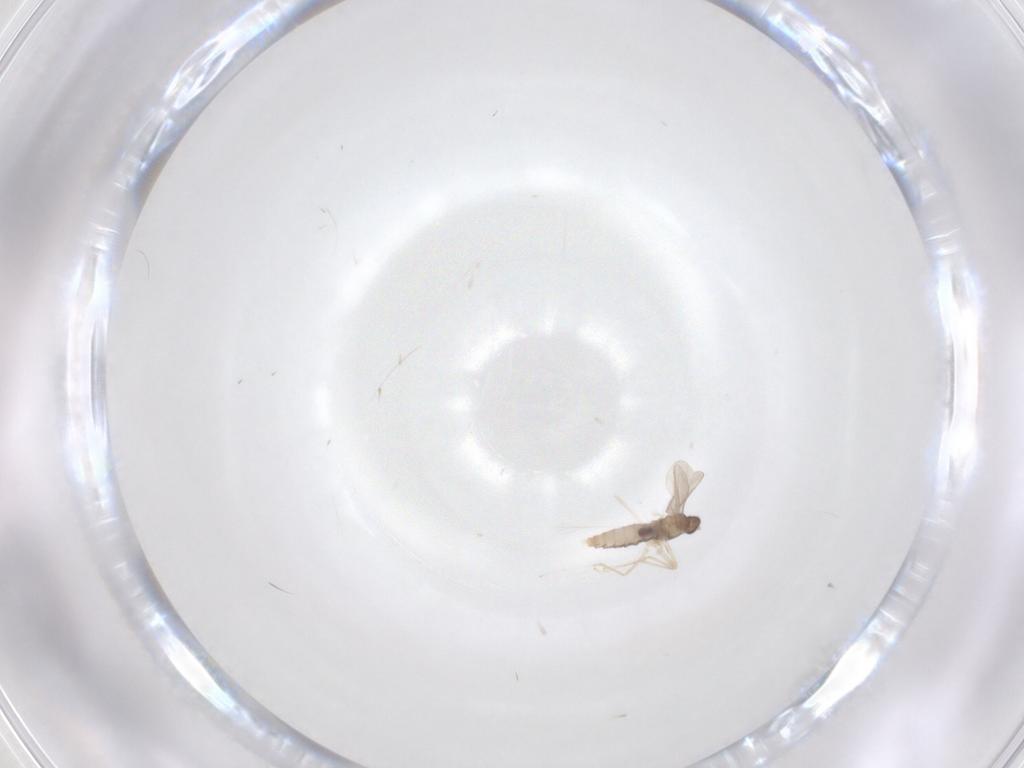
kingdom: Animalia
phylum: Arthropoda
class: Insecta
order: Diptera
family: Cecidomyiidae
